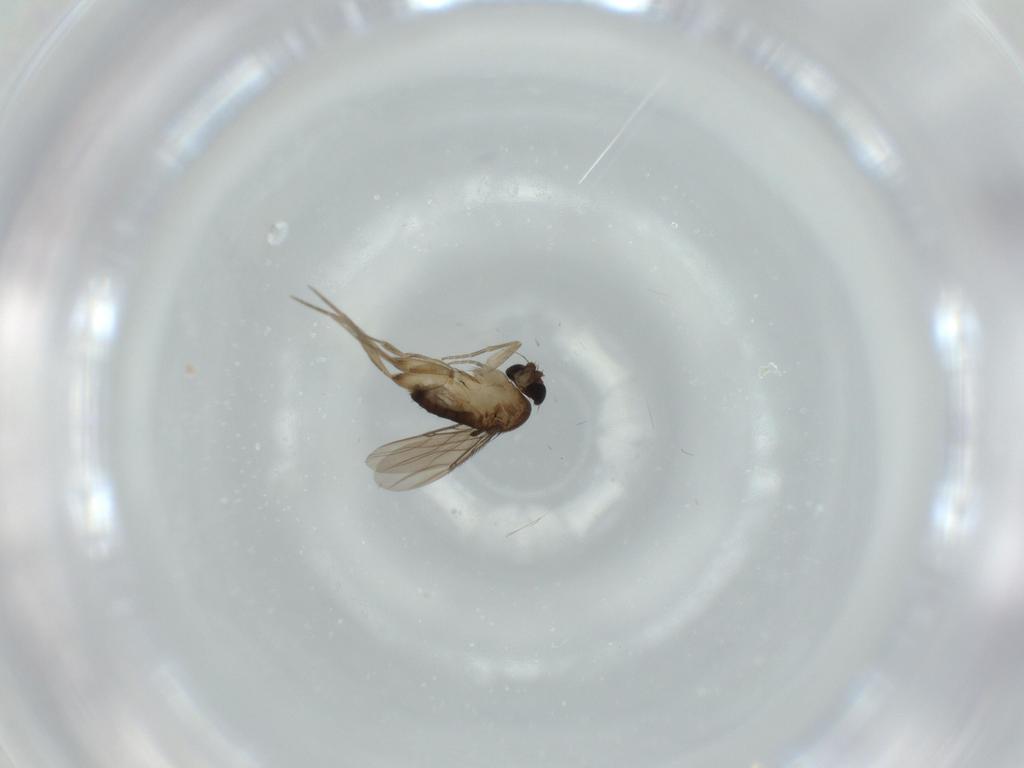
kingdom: Animalia
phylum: Arthropoda
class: Insecta
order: Diptera
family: Phoridae
